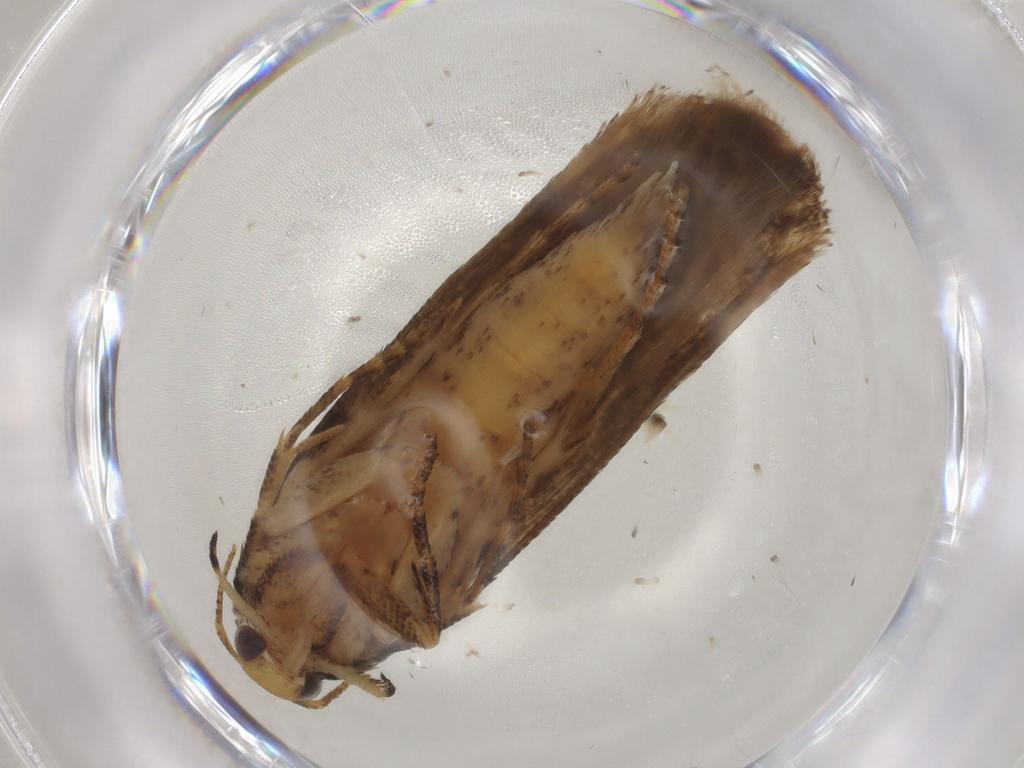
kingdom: Animalia
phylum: Arthropoda
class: Insecta
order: Lepidoptera
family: Gelechiidae
